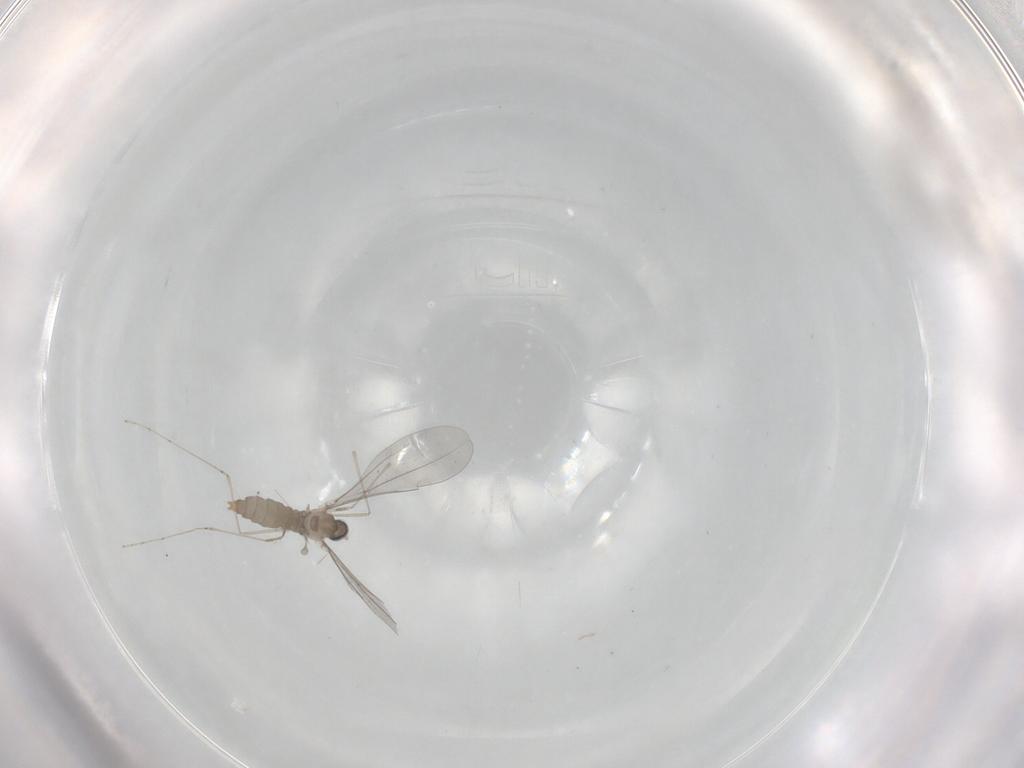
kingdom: Animalia
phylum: Arthropoda
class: Insecta
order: Diptera
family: Cecidomyiidae
